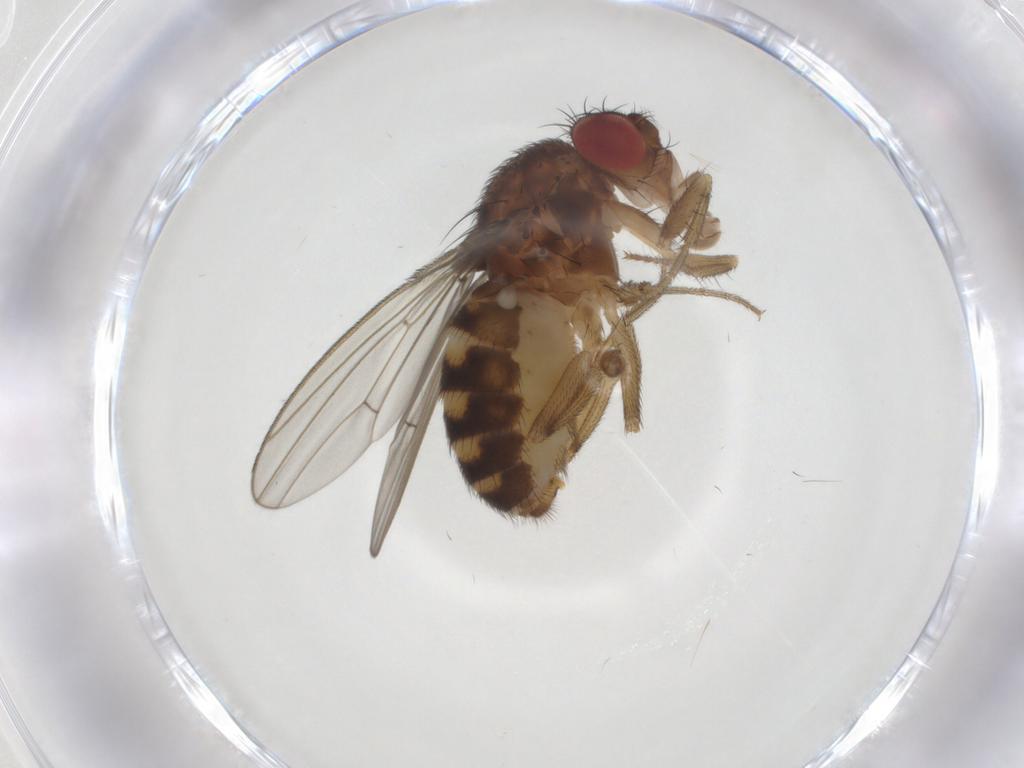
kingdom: Animalia
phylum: Arthropoda
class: Insecta
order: Diptera
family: Drosophilidae
